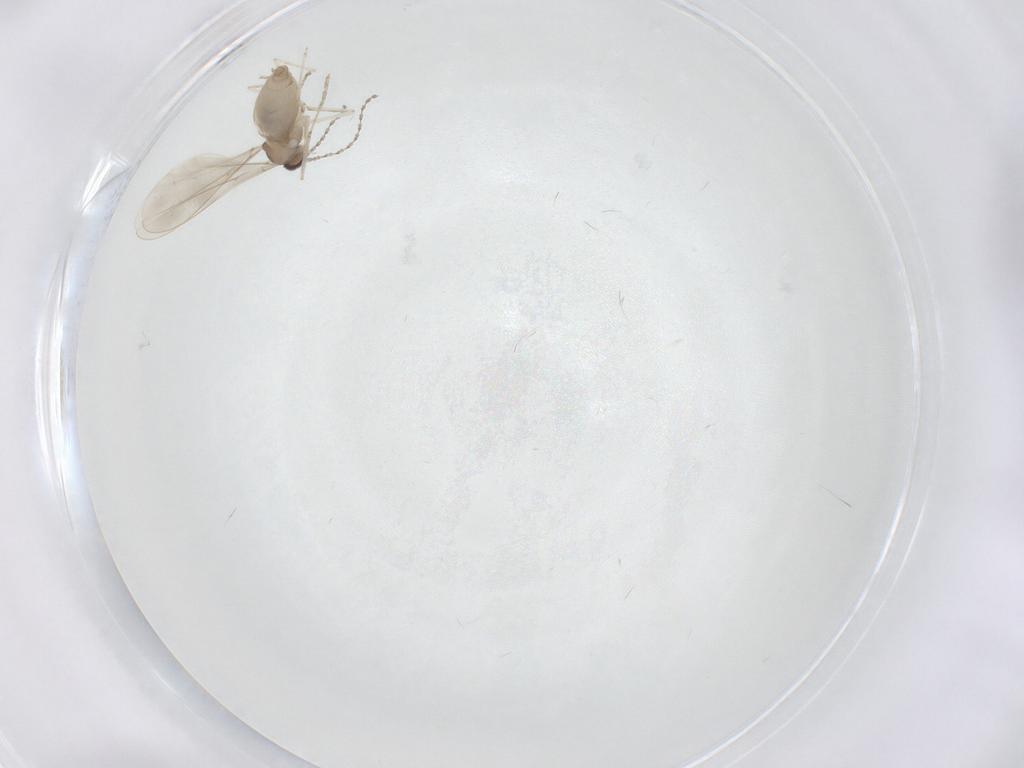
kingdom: Animalia
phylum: Arthropoda
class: Insecta
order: Diptera
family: Cecidomyiidae
